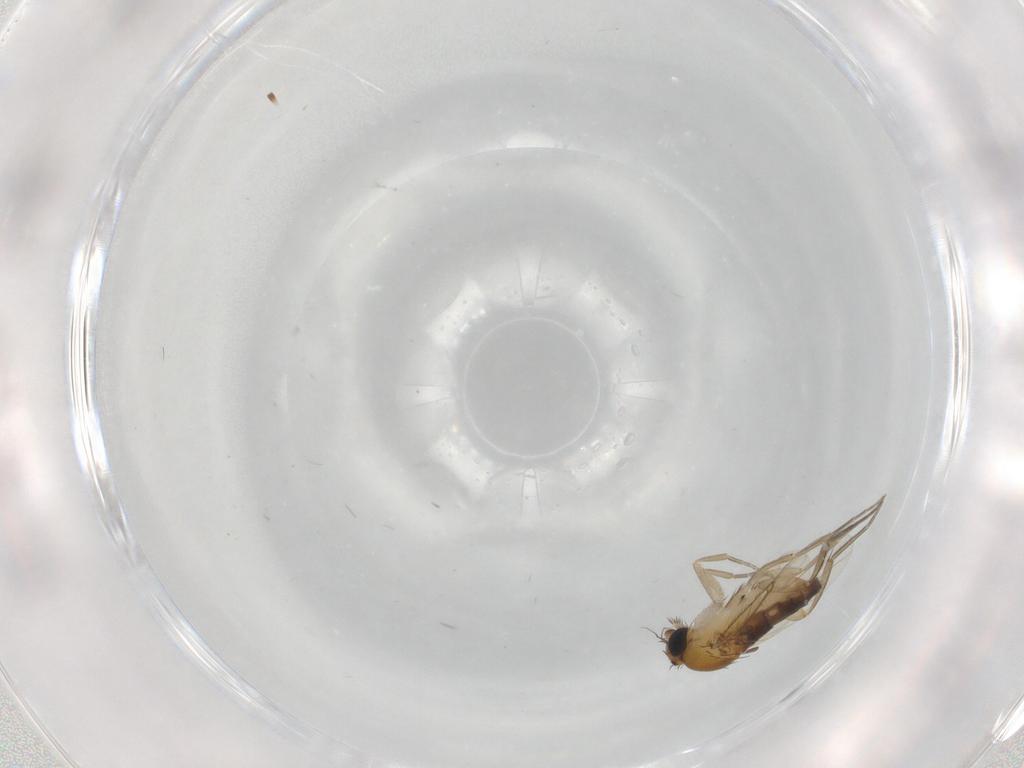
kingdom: Animalia
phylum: Arthropoda
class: Insecta
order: Diptera
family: Phoridae
